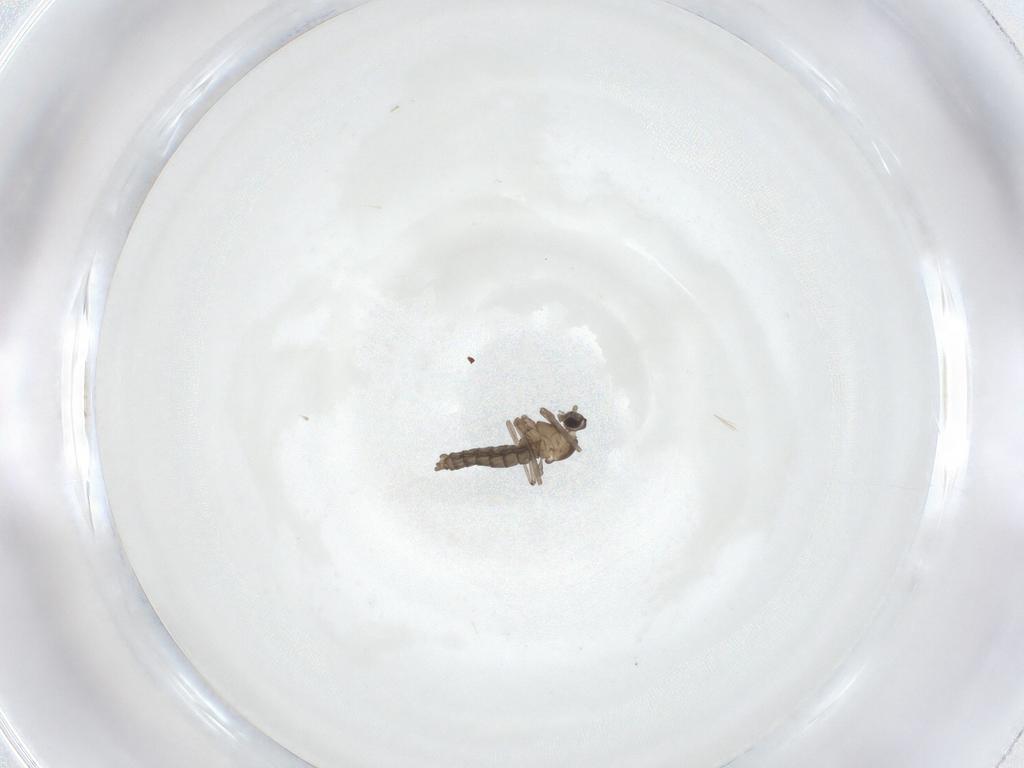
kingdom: Animalia
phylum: Arthropoda
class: Insecta
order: Diptera
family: Cecidomyiidae
